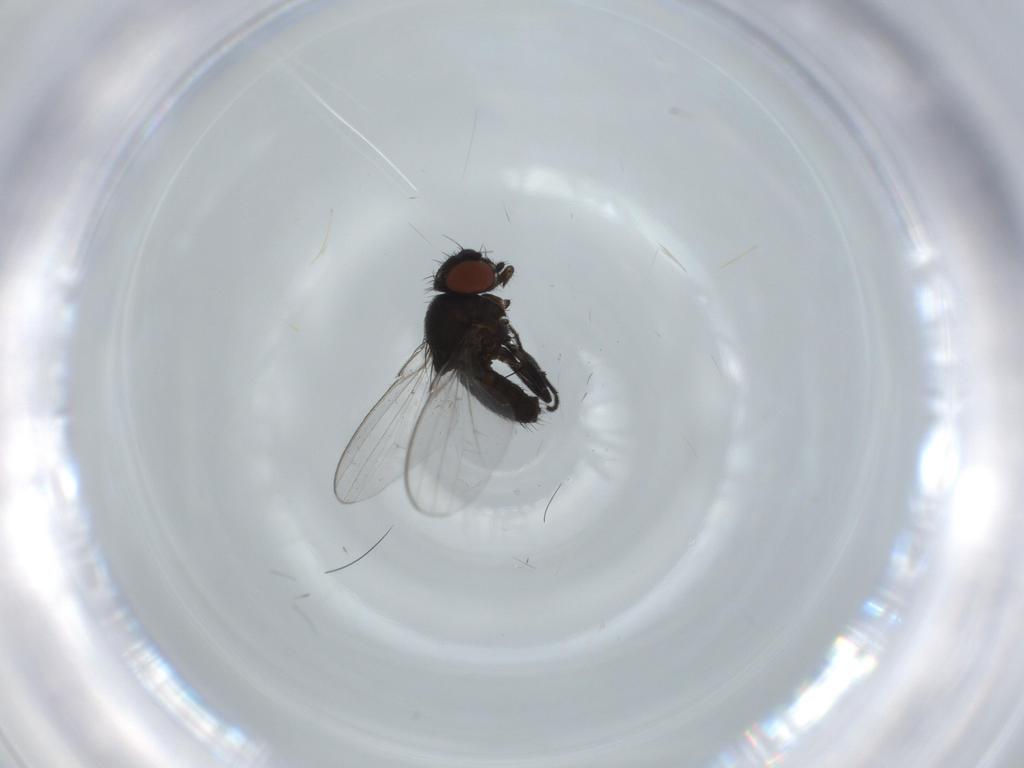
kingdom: Animalia
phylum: Arthropoda
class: Insecta
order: Diptera
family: Milichiidae
